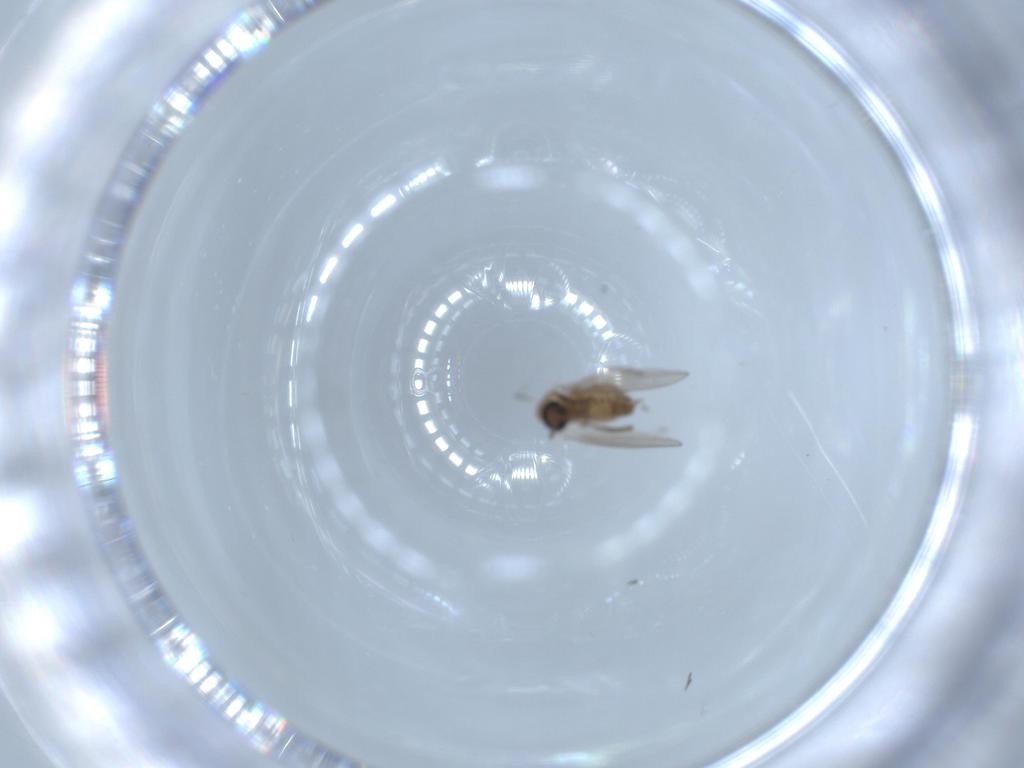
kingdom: Animalia
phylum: Arthropoda
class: Insecta
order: Diptera
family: Psychodidae
